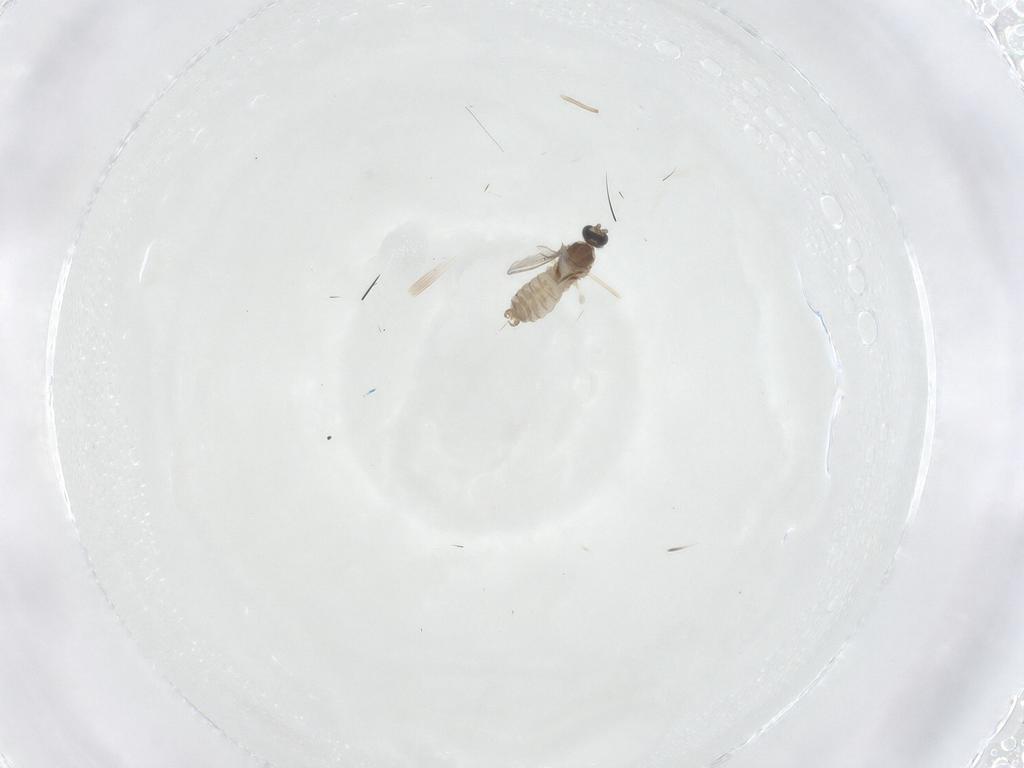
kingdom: Animalia
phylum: Arthropoda
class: Insecta
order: Diptera
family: Cecidomyiidae
